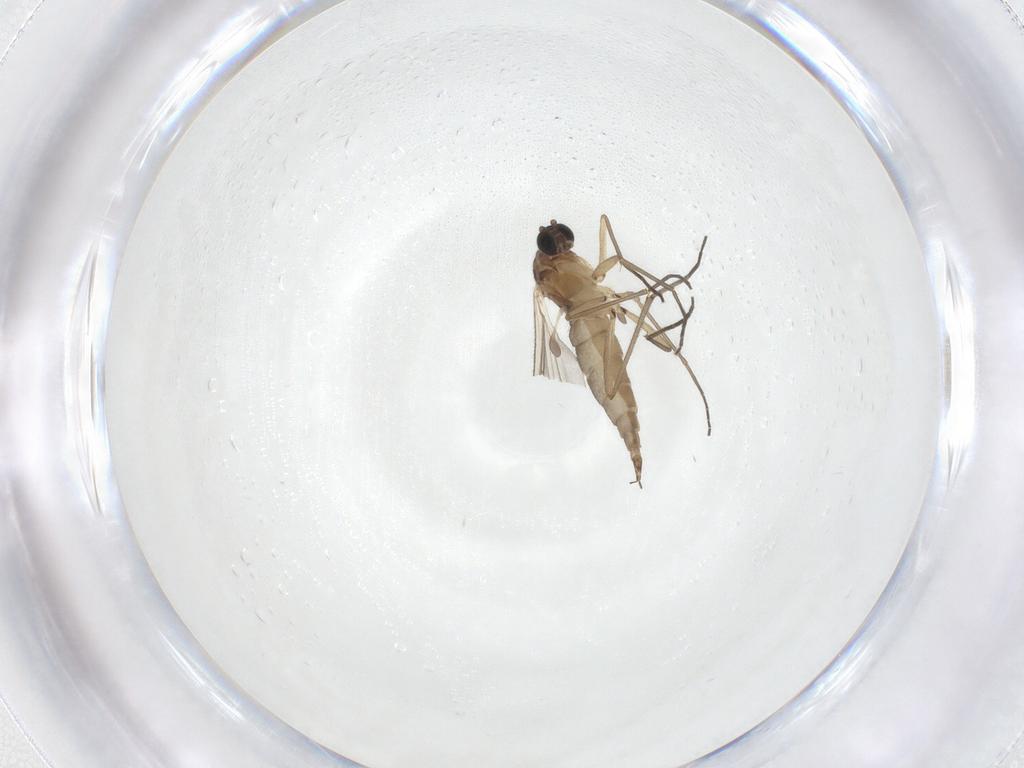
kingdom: Animalia
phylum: Arthropoda
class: Insecta
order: Diptera
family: Sciaridae
